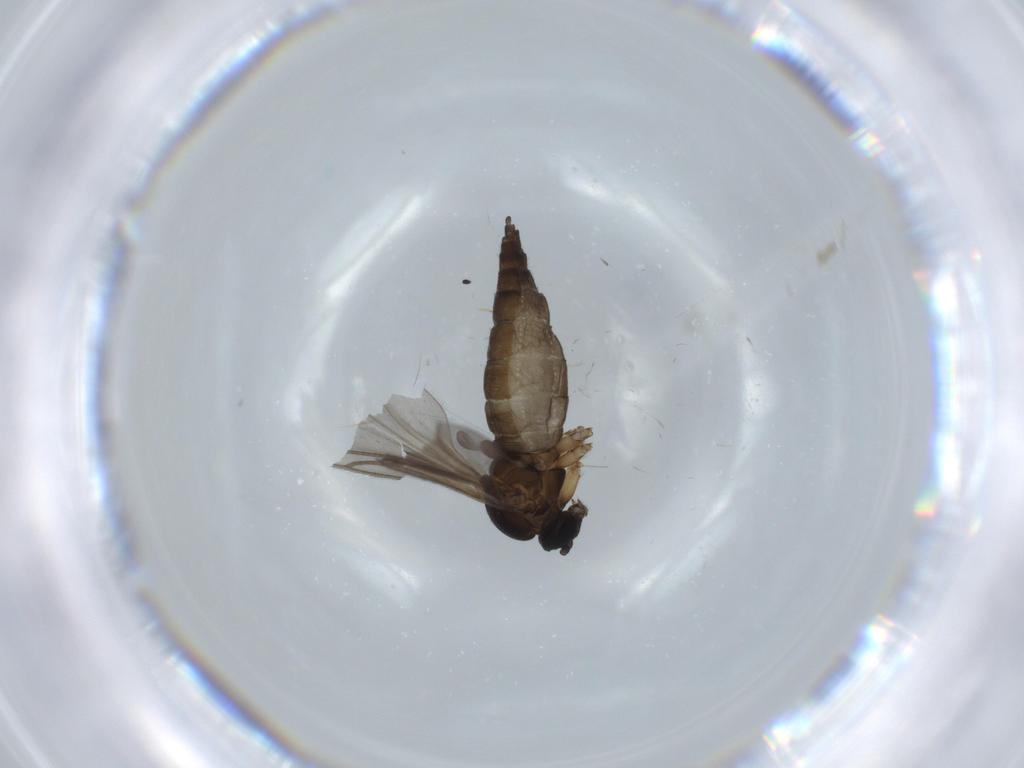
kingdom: Animalia
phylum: Arthropoda
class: Insecta
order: Diptera
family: Sciaridae
